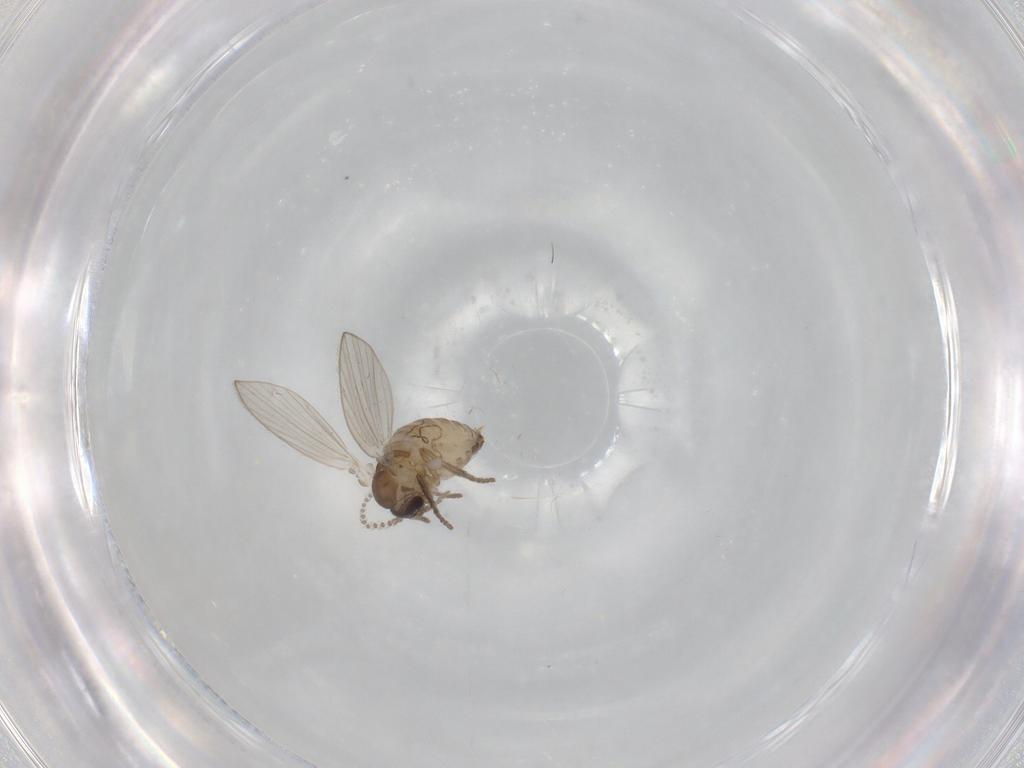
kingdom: Animalia
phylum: Arthropoda
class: Insecta
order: Diptera
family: Psychodidae
